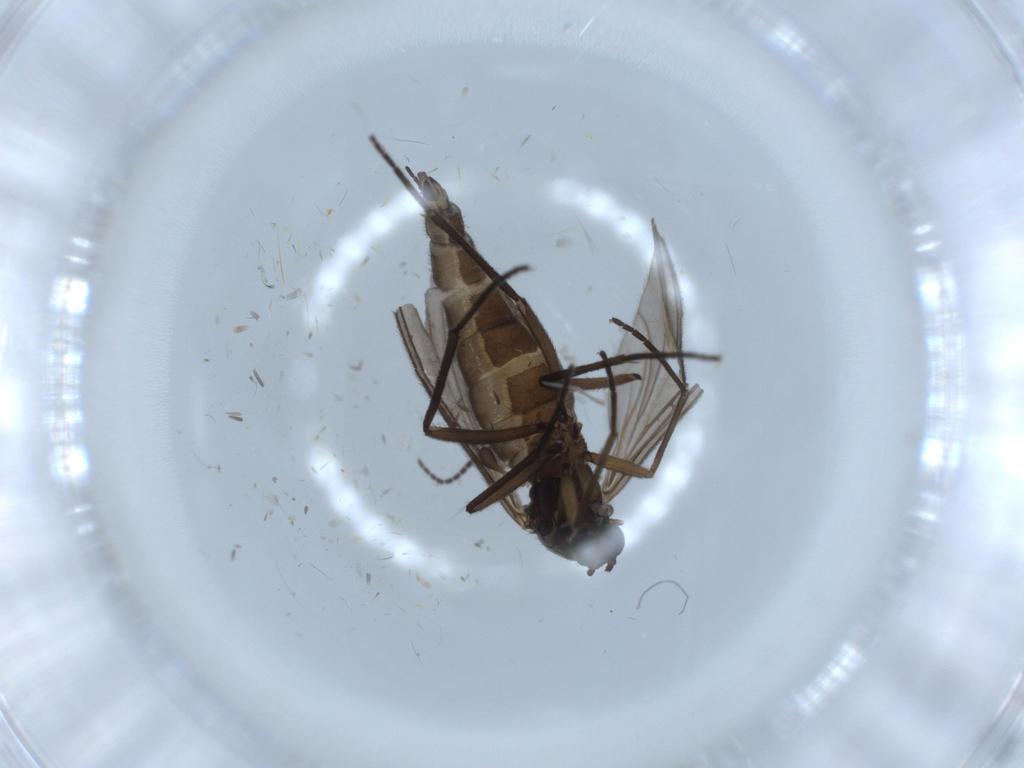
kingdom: Animalia
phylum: Arthropoda
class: Insecta
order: Diptera
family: Sciaridae
